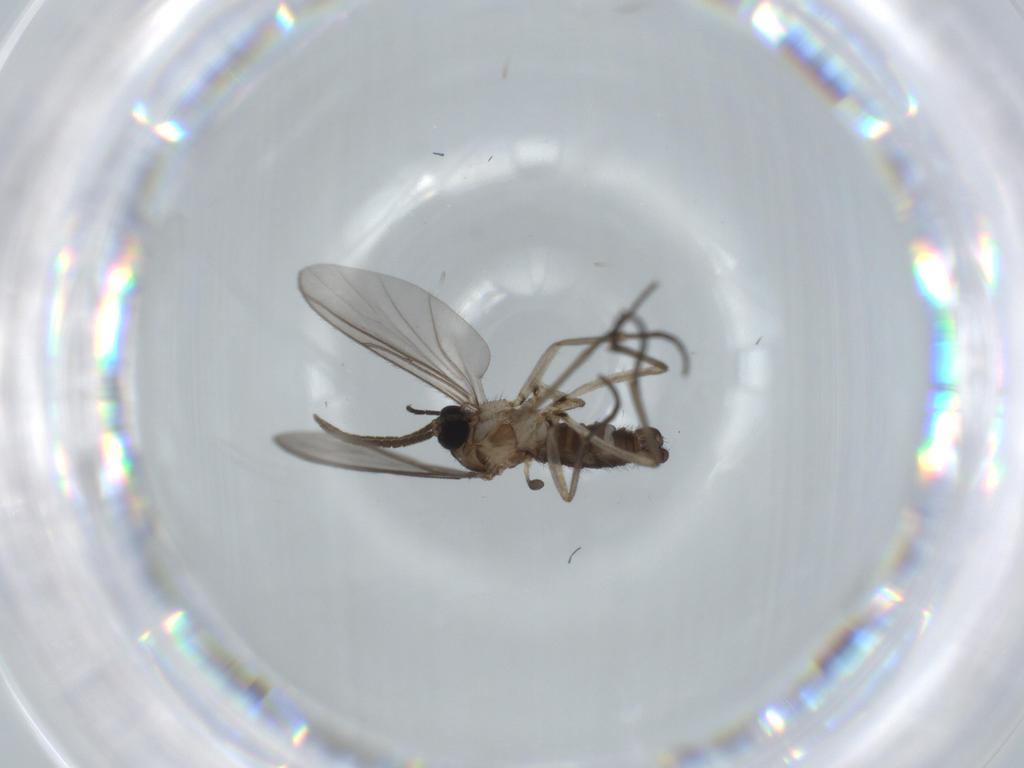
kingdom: Animalia
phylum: Arthropoda
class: Insecta
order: Diptera
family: Sciaridae
